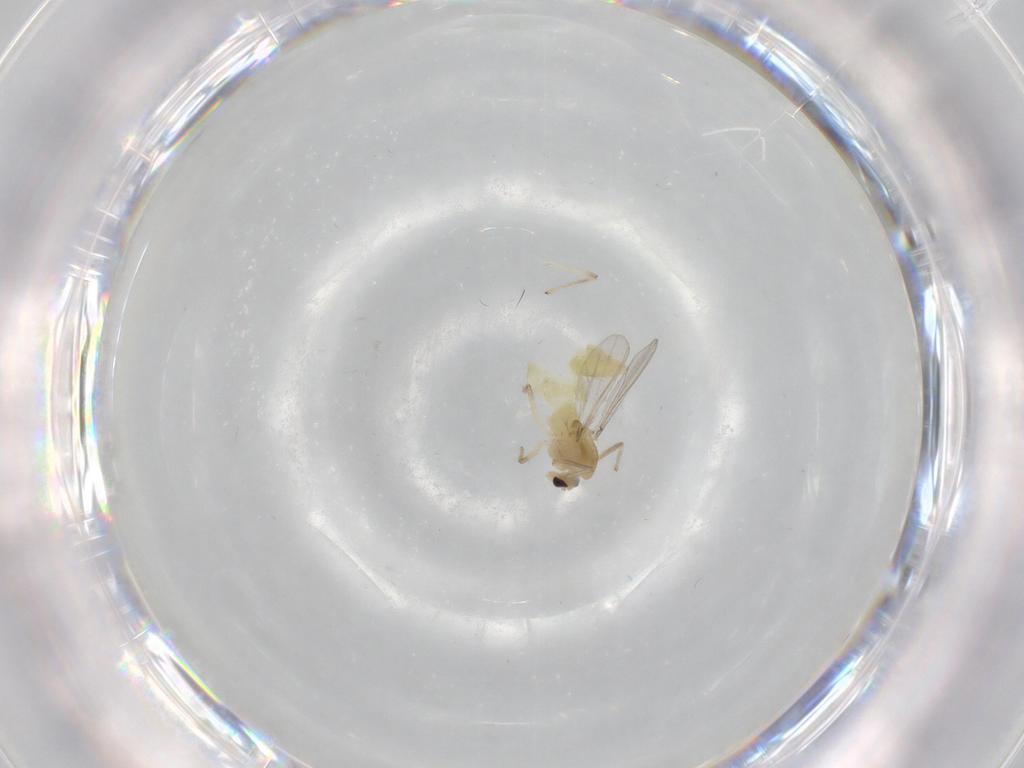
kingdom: Animalia
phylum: Arthropoda
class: Insecta
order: Diptera
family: Chironomidae
